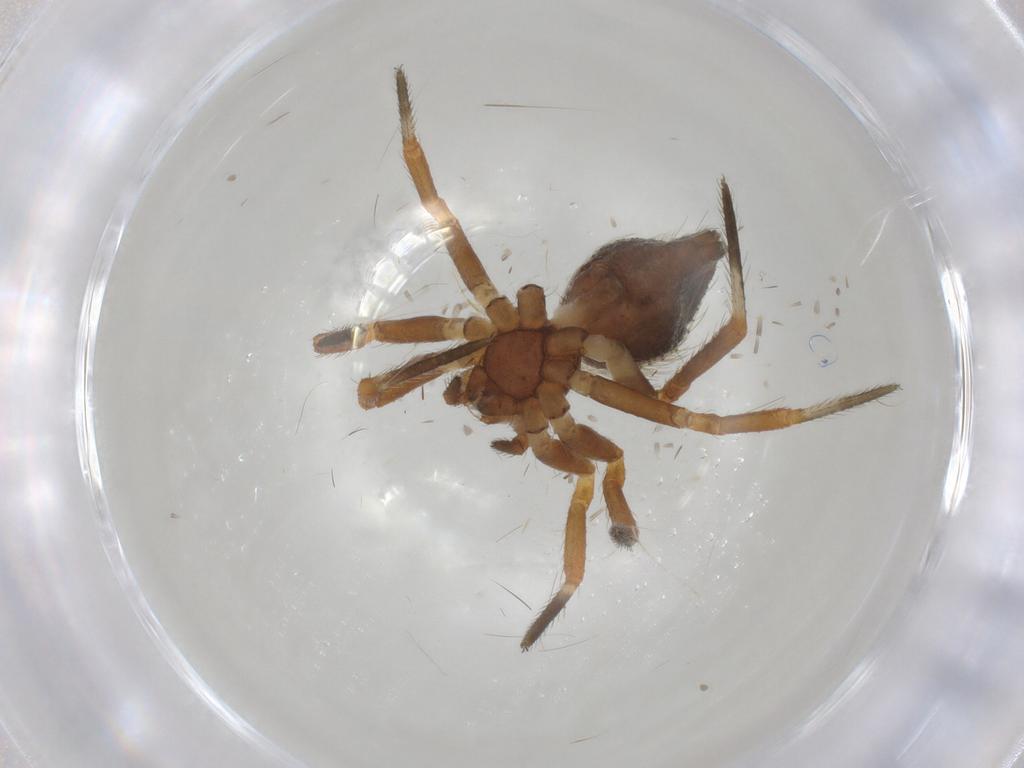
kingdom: Animalia
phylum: Arthropoda
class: Arachnida
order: Araneae
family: Theridiidae
